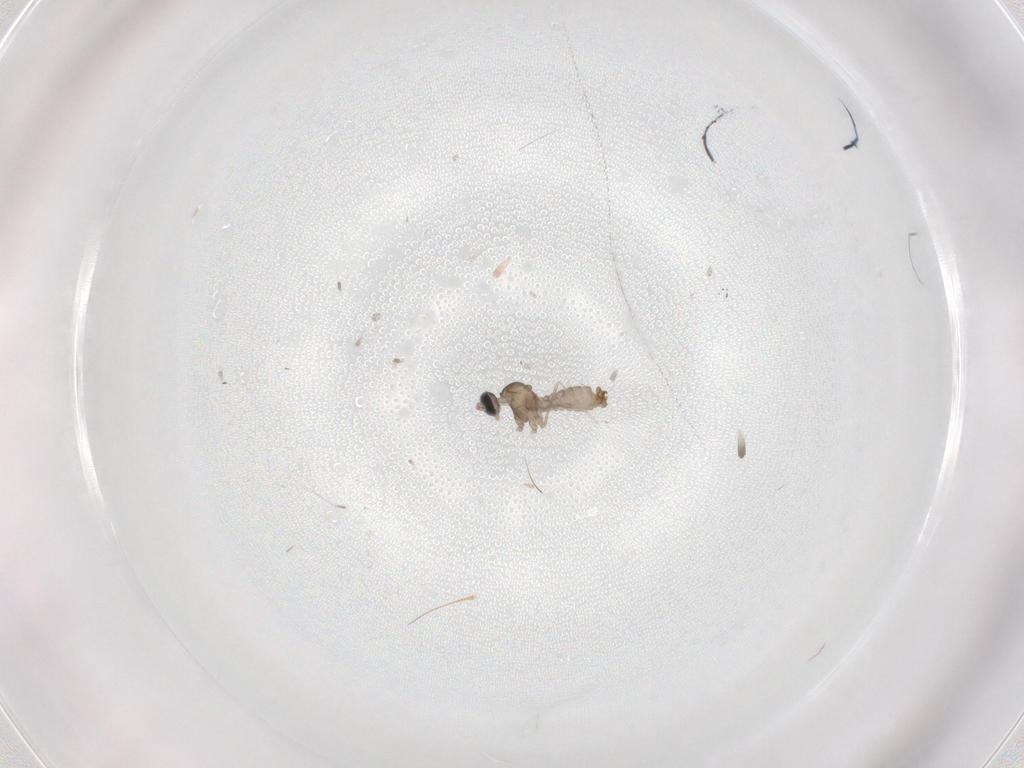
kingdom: Animalia
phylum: Arthropoda
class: Insecta
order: Diptera
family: Cecidomyiidae
